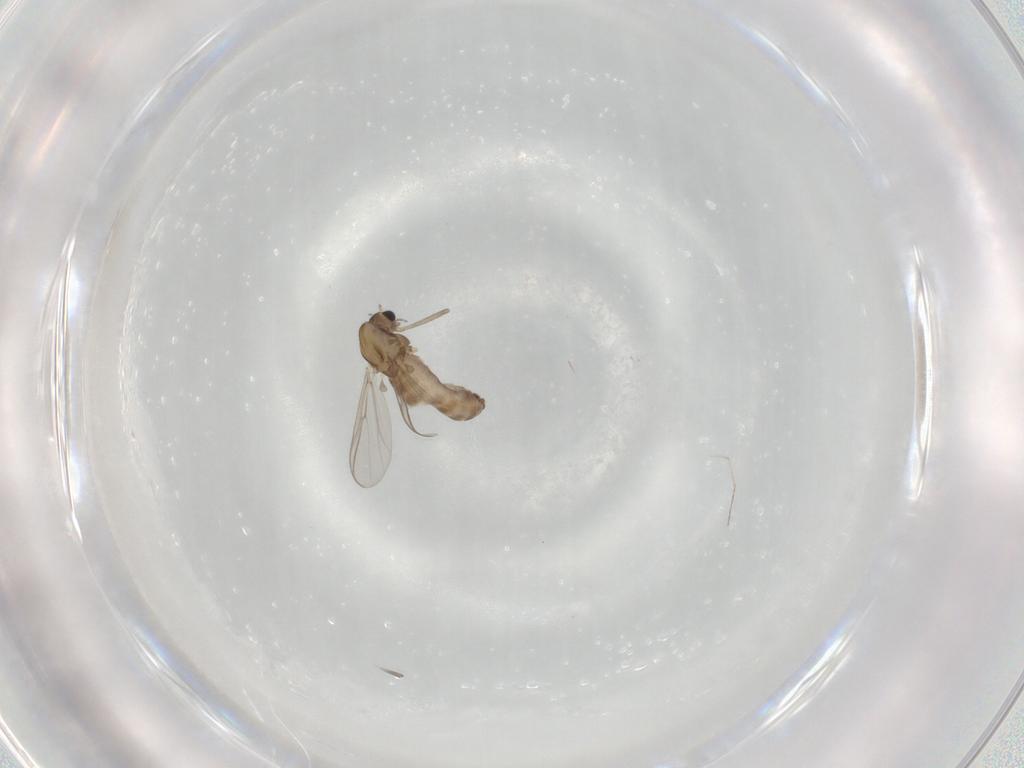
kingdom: Animalia
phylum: Arthropoda
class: Insecta
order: Diptera
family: Chironomidae
